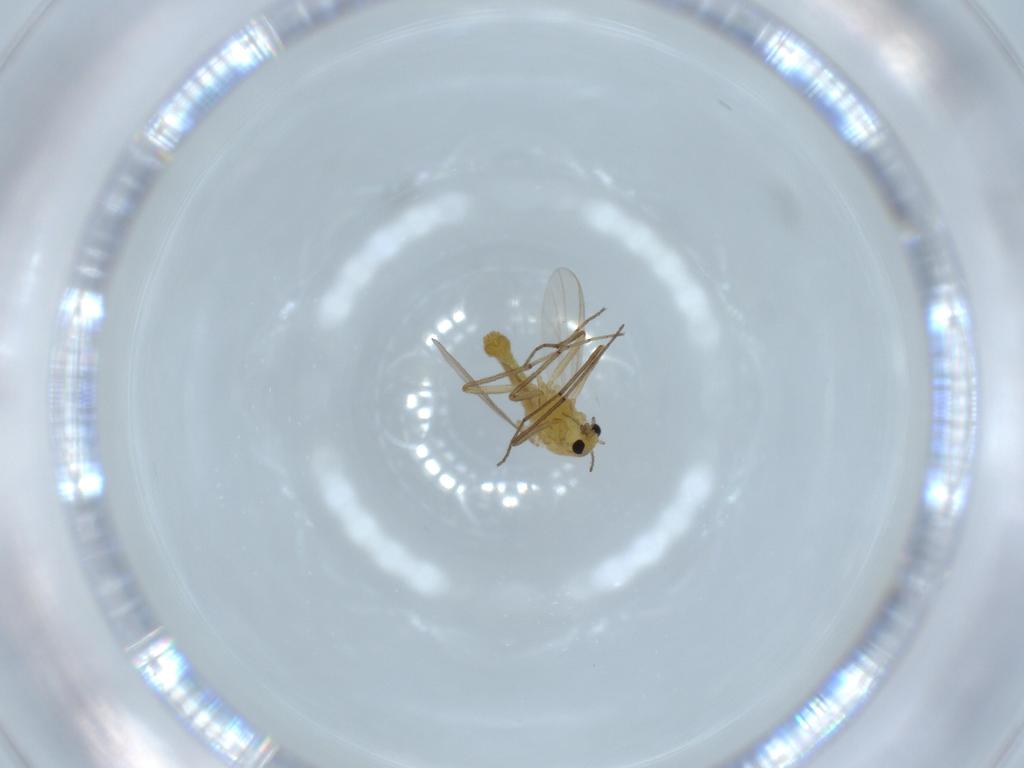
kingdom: Animalia
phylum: Arthropoda
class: Insecta
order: Diptera
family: Chironomidae
